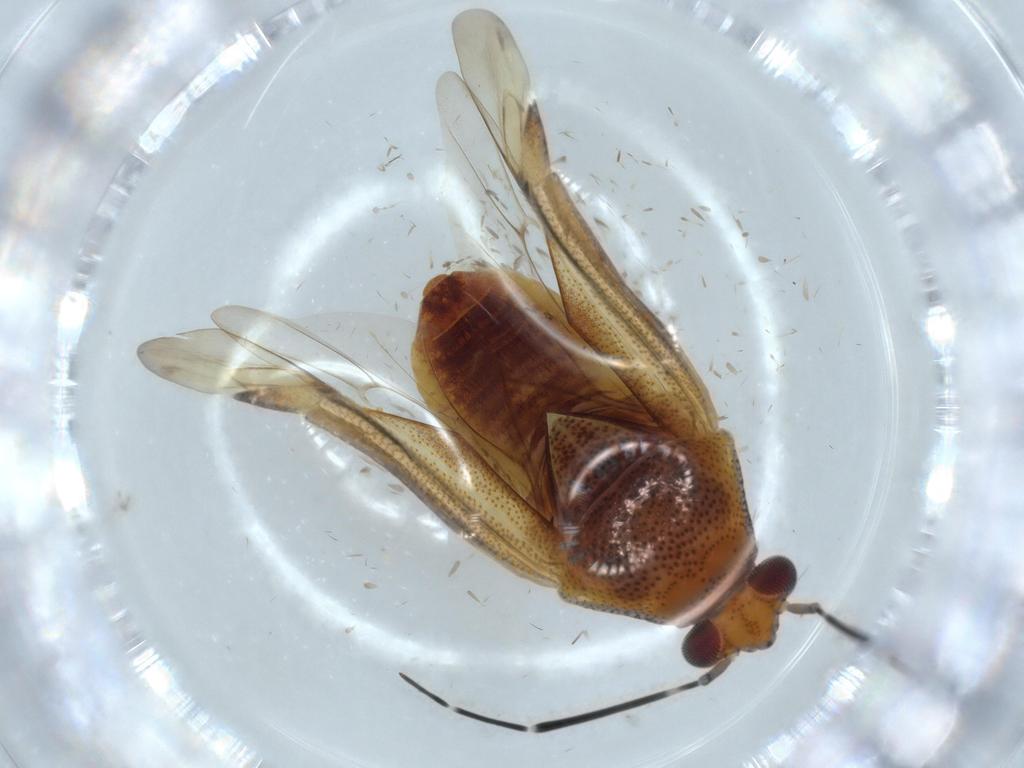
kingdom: Animalia
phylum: Arthropoda
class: Insecta
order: Hemiptera
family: Miridae
